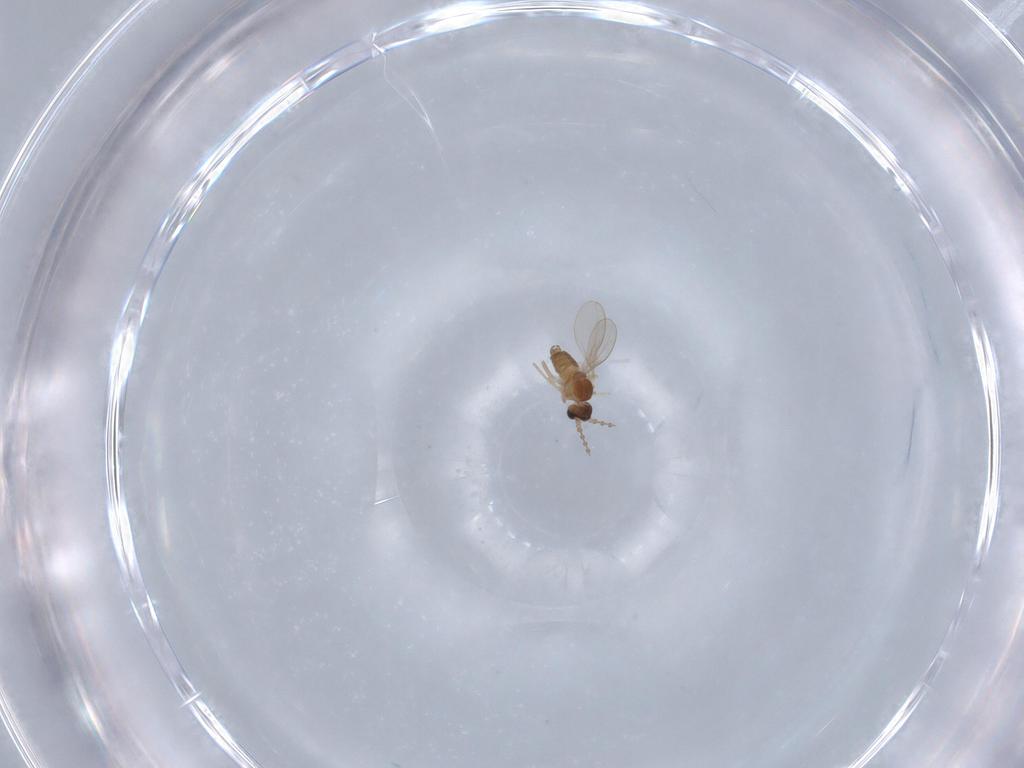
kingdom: Animalia
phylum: Arthropoda
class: Insecta
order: Diptera
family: Cecidomyiidae
